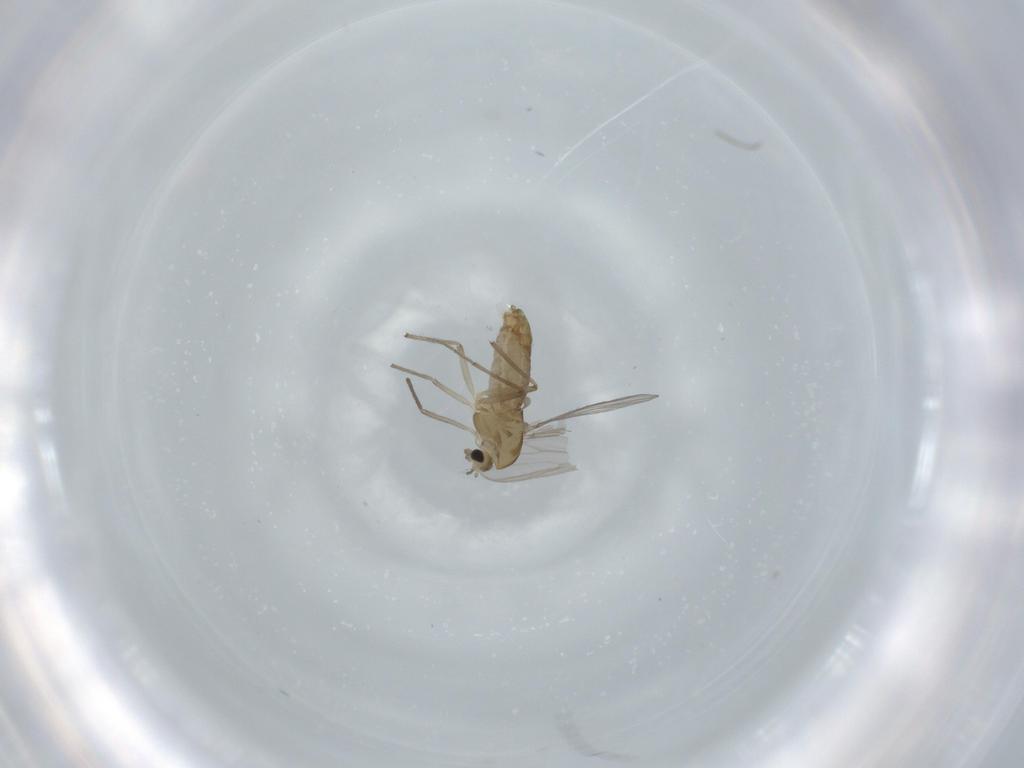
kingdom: Animalia
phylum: Arthropoda
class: Insecta
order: Diptera
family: Chironomidae
